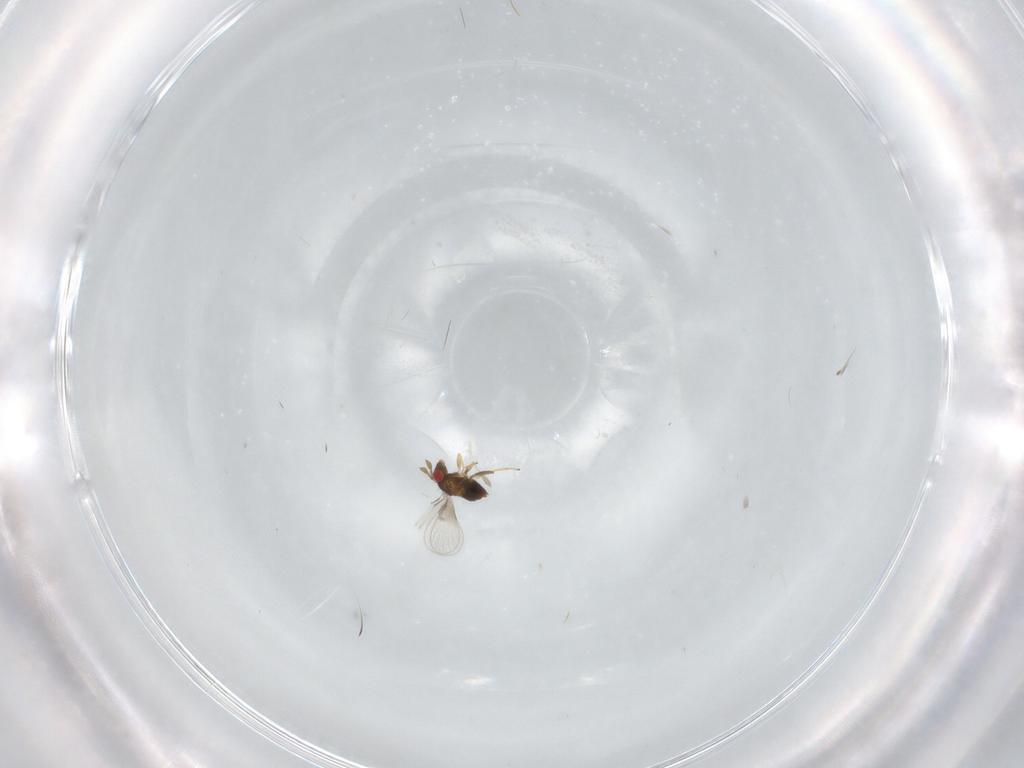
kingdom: Animalia
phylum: Arthropoda
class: Insecta
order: Hymenoptera
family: Trichogrammatidae
